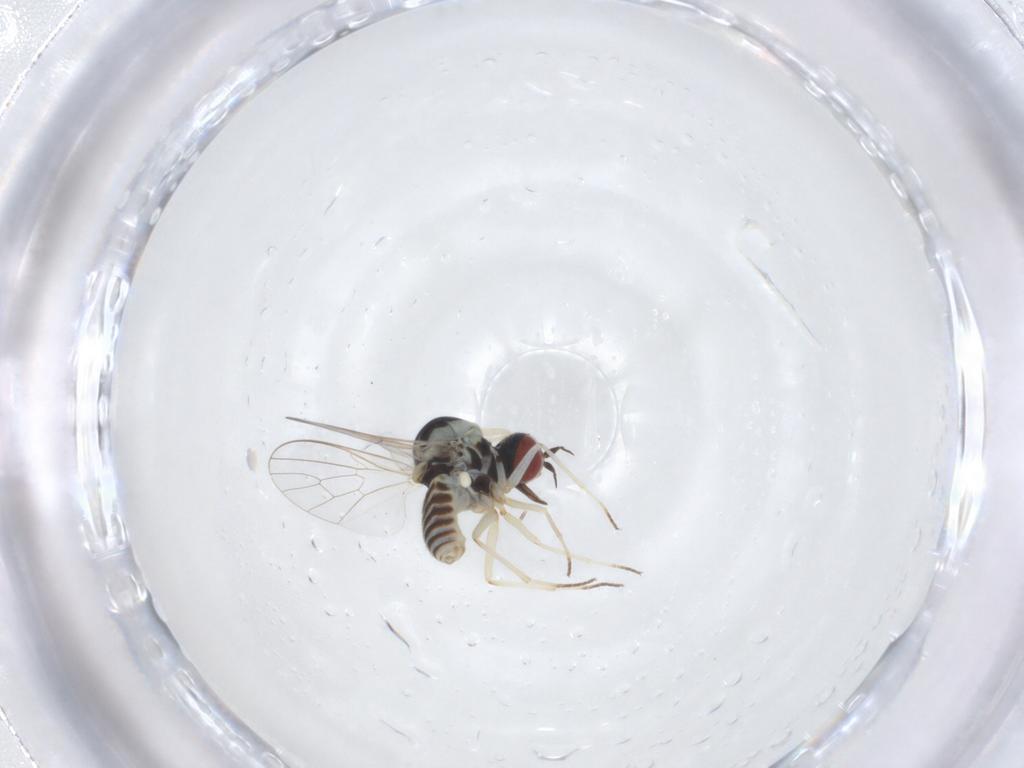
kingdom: Animalia
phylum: Arthropoda
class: Insecta
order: Diptera
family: Mythicomyiidae
